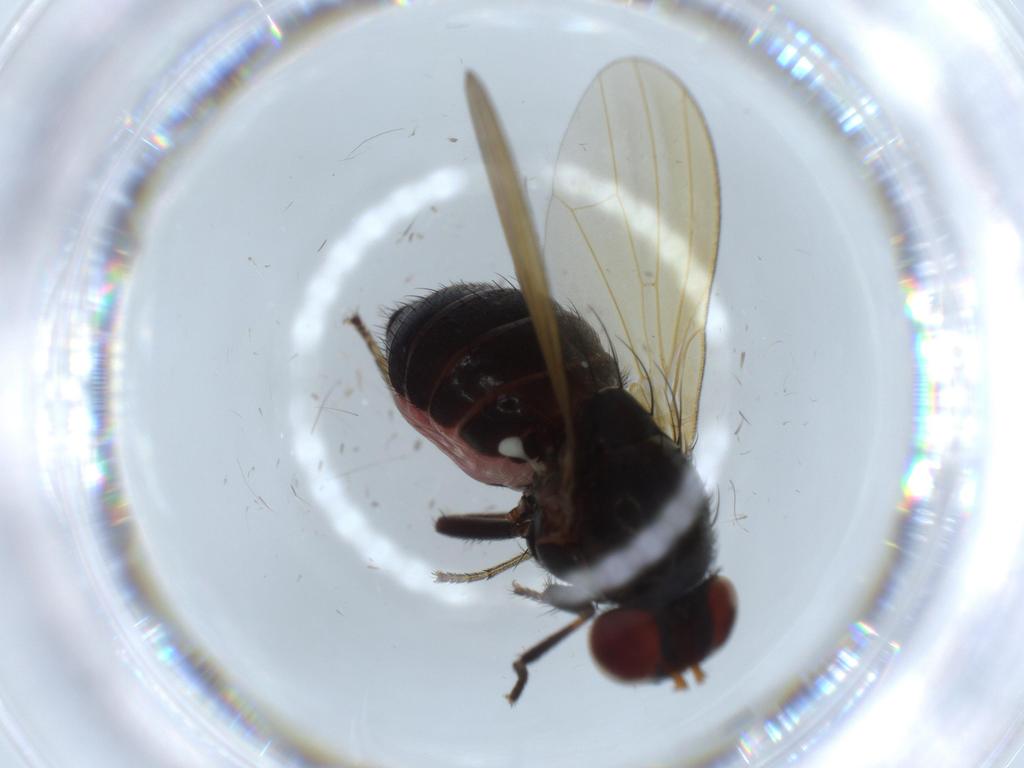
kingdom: Animalia
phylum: Arthropoda
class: Insecta
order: Diptera
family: Lauxaniidae
